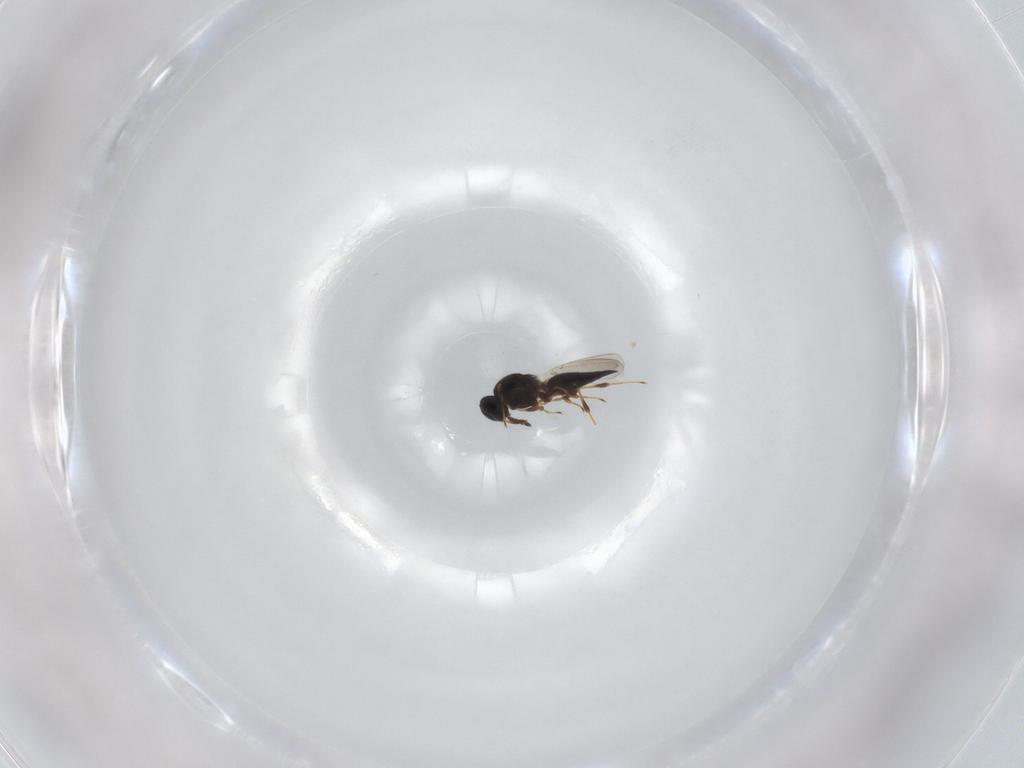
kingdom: Animalia
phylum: Arthropoda
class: Insecta
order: Hymenoptera
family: Platygastridae
